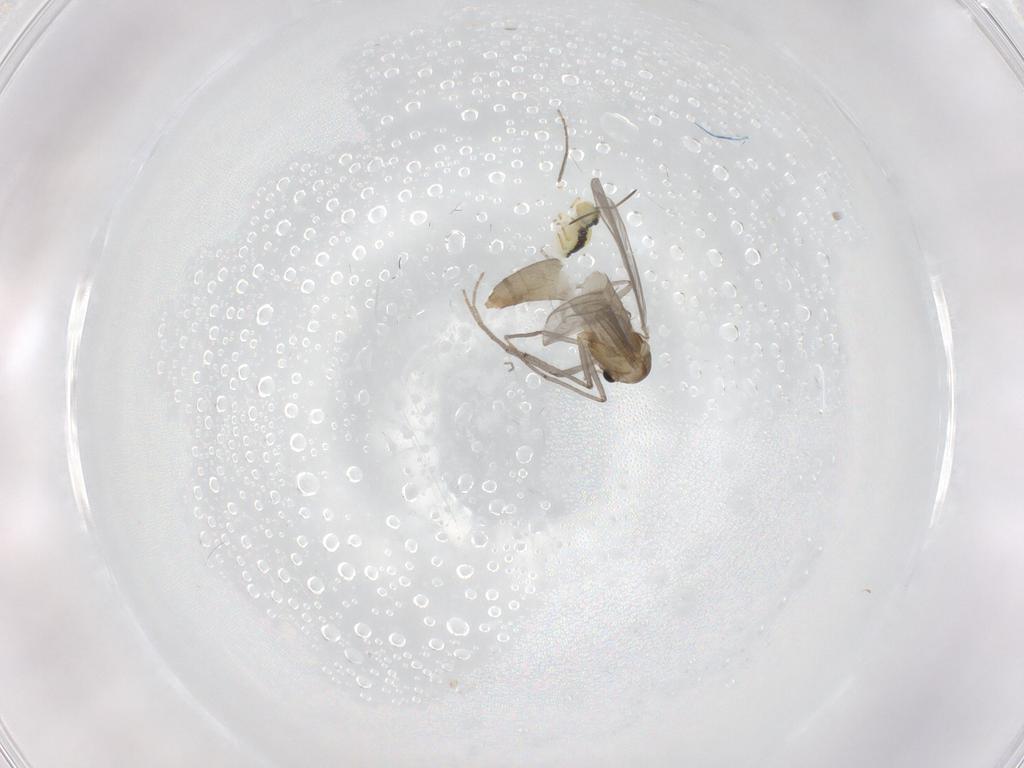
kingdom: Animalia
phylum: Arthropoda
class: Insecta
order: Diptera
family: Chironomidae
